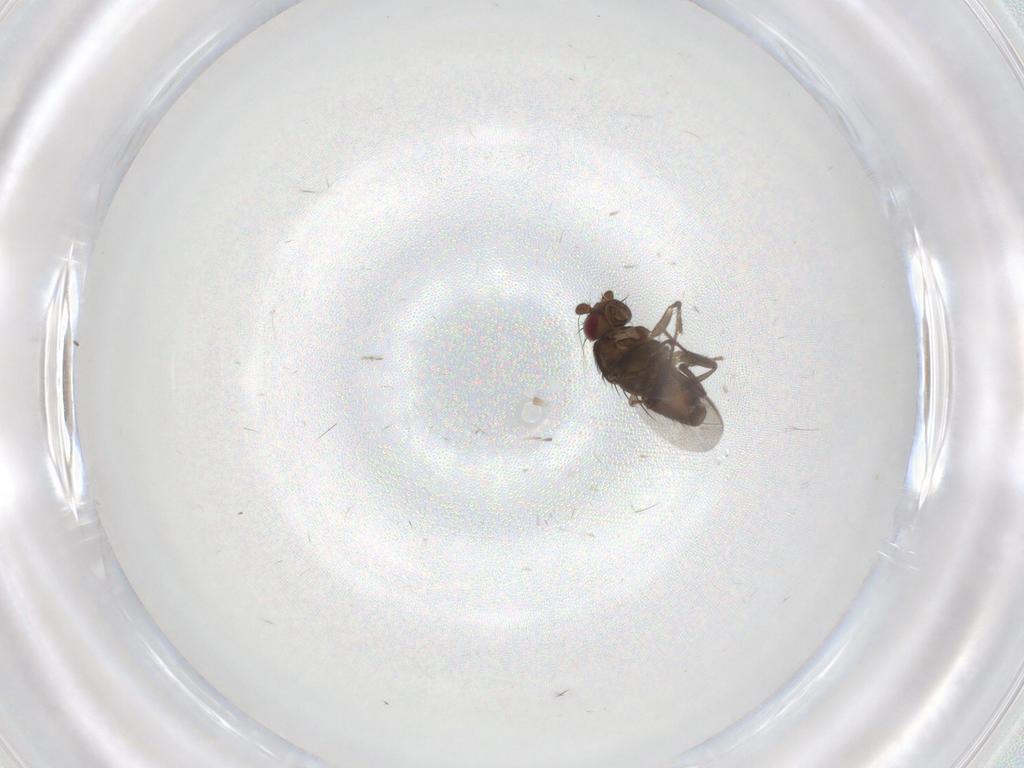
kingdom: Animalia
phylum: Arthropoda
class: Insecta
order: Diptera
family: Sphaeroceridae
